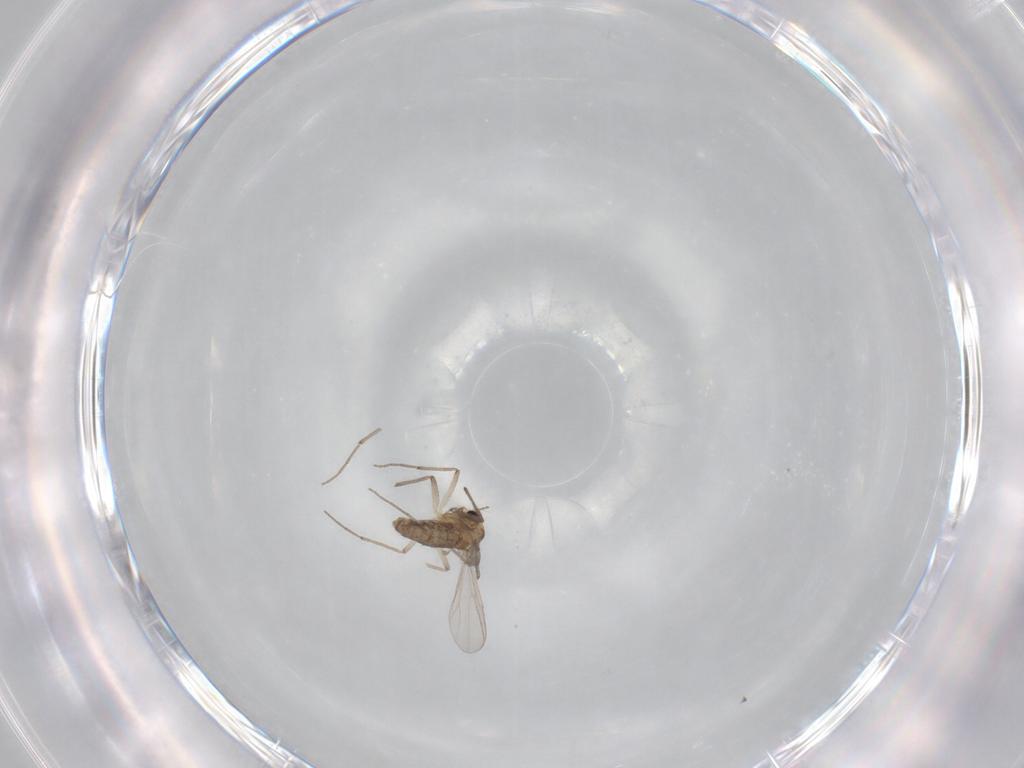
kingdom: Animalia
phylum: Arthropoda
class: Insecta
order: Diptera
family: Chironomidae
